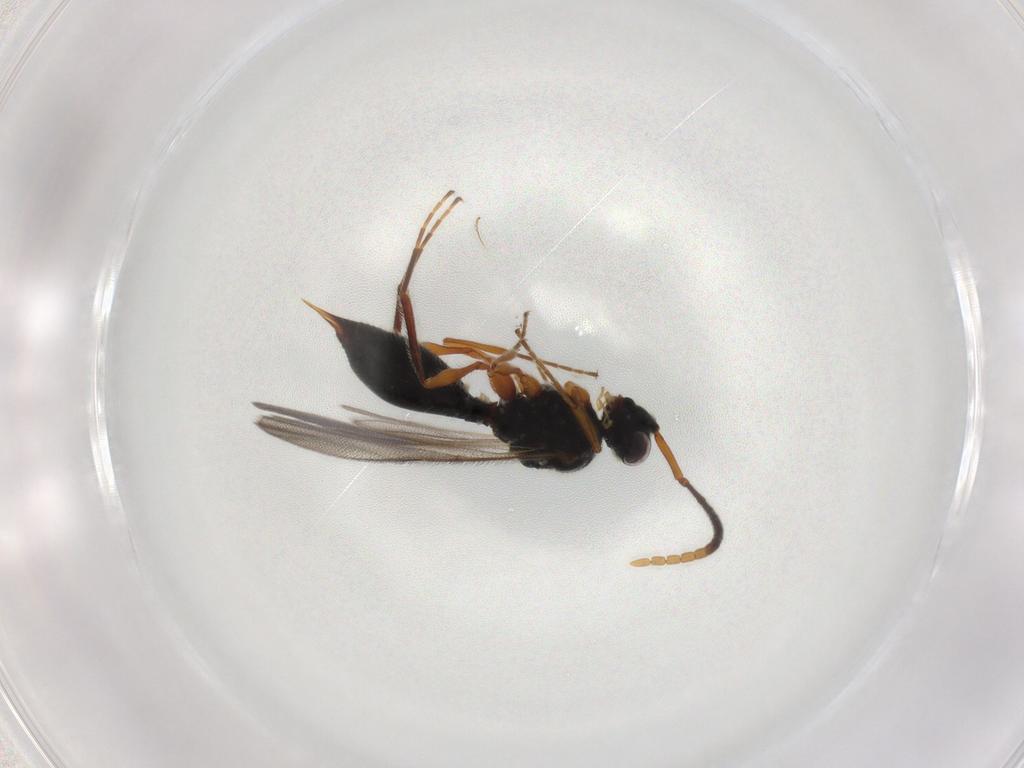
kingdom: Animalia
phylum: Arthropoda
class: Insecta
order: Hymenoptera
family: Diapriidae
